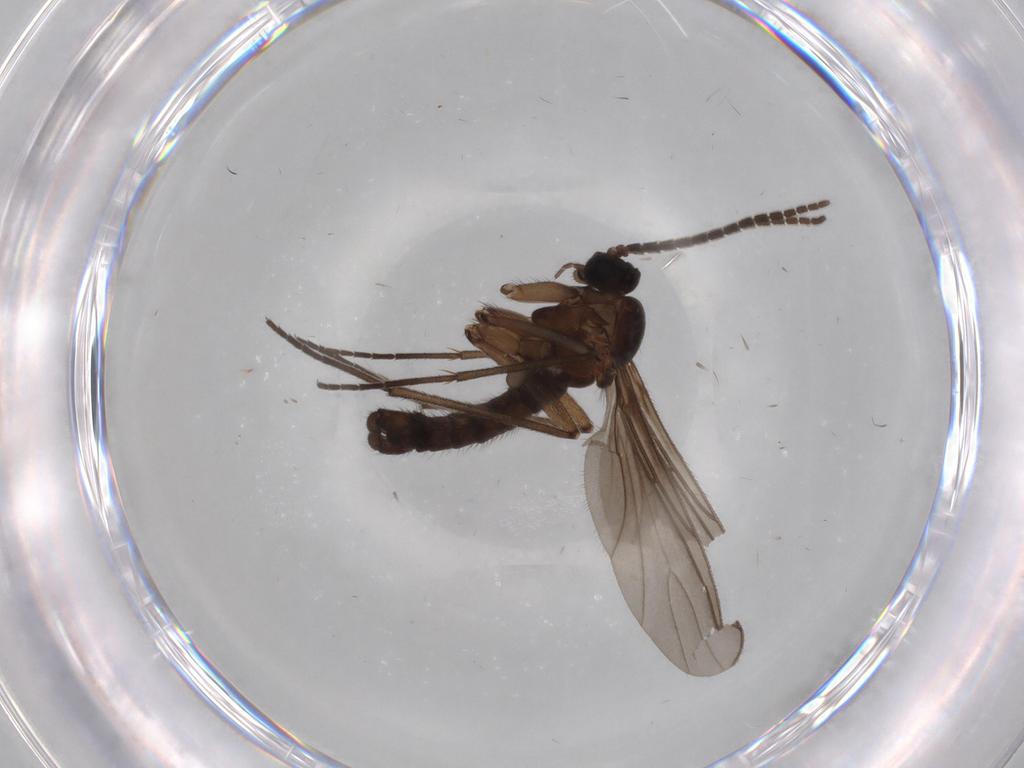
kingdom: Animalia
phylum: Arthropoda
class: Insecta
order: Diptera
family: Sciaridae
